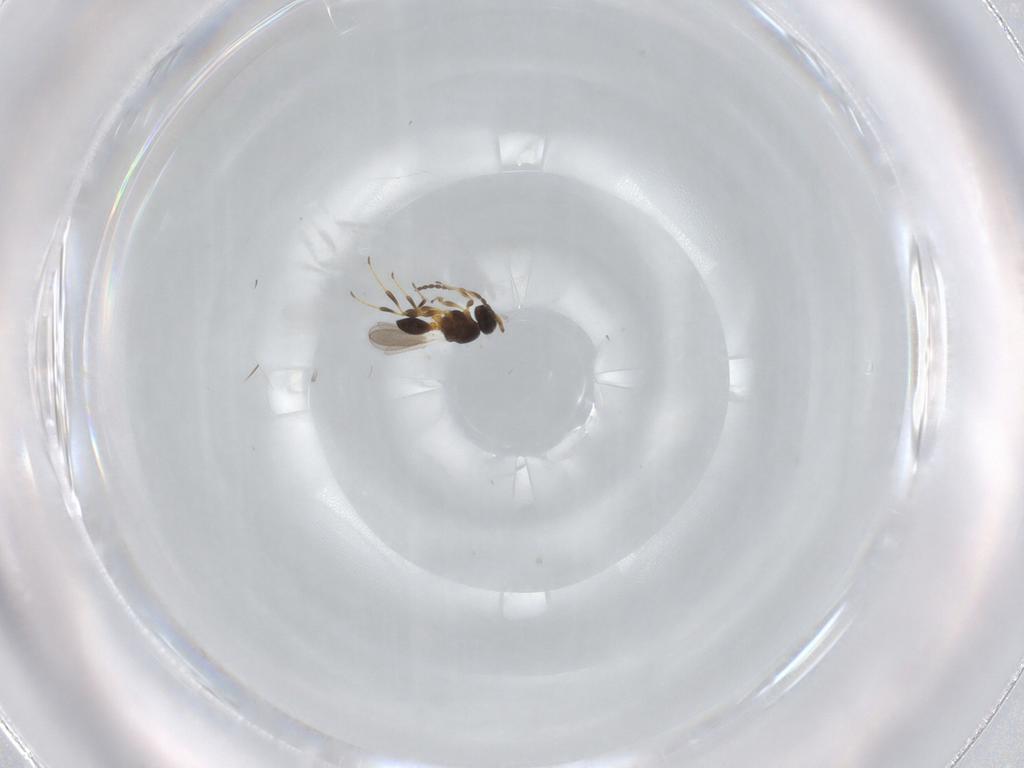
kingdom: Animalia
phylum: Arthropoda
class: Insecta
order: Hymenoptera
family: Platygastridae
